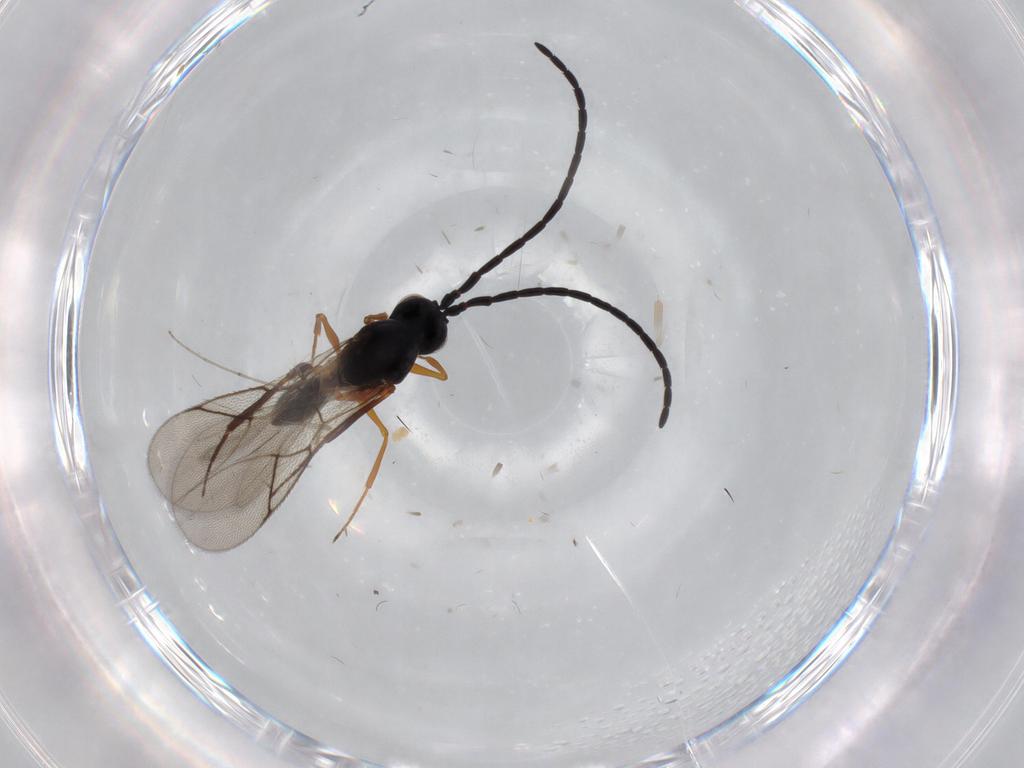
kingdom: Animalia
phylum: Arthropoda
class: Insecta
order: Hymenoptera
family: Figitidae
